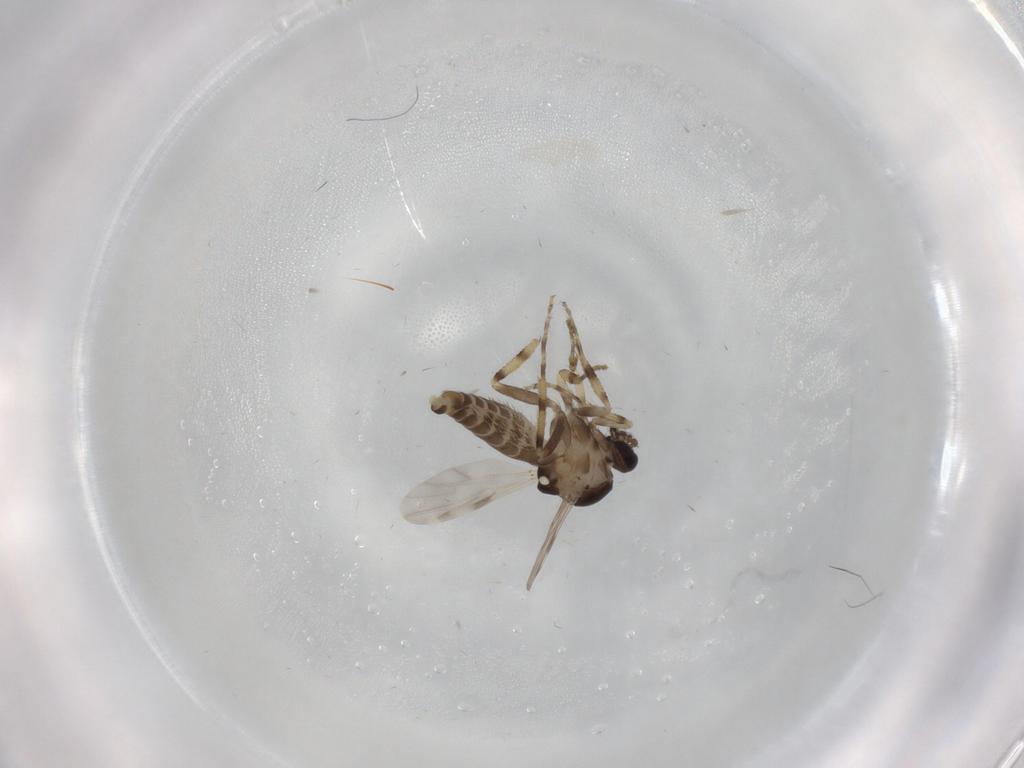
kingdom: Animalia
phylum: Arthropoda
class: Insecta
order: Diptera
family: Ceratopogonidae
